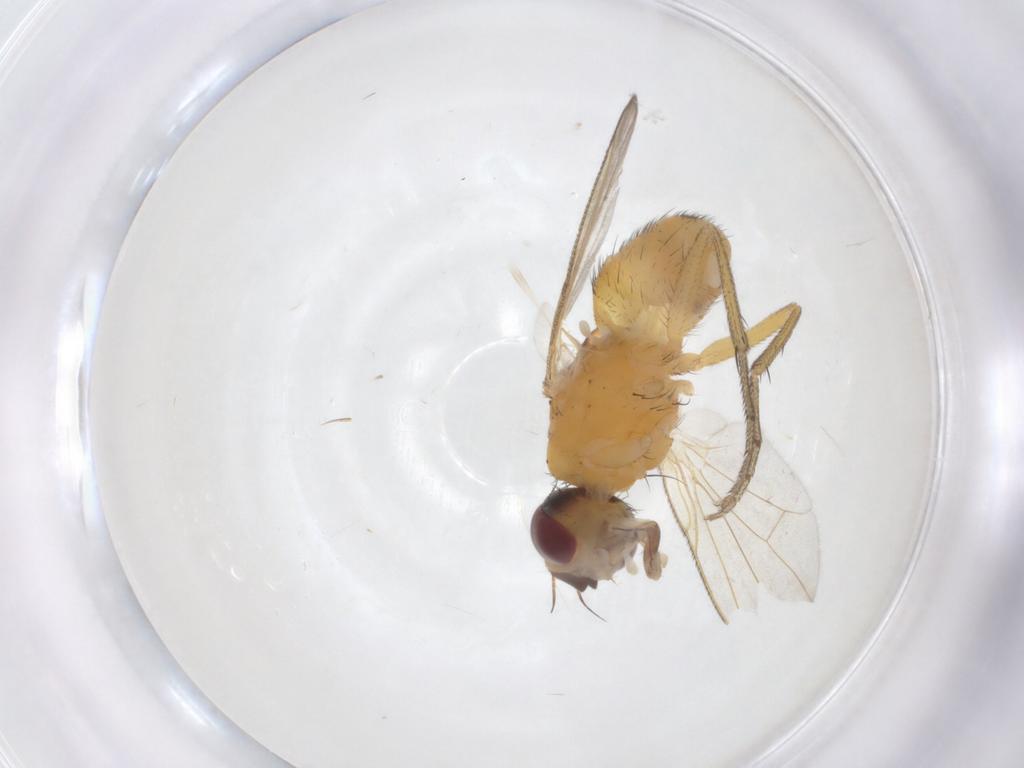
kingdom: Animalia
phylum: Arthropoda
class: Insecta
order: Diptera
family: Muscidae
